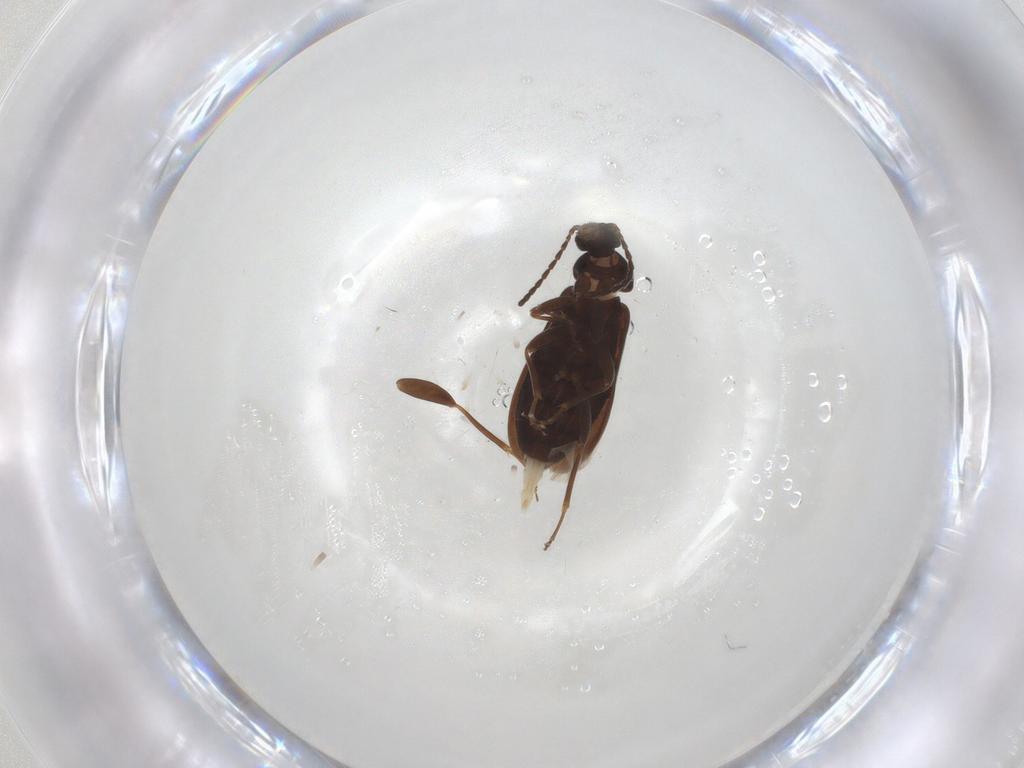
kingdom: Animalia
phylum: Arthropoda
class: Insecta
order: Coleoptera
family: Scraptiidae
